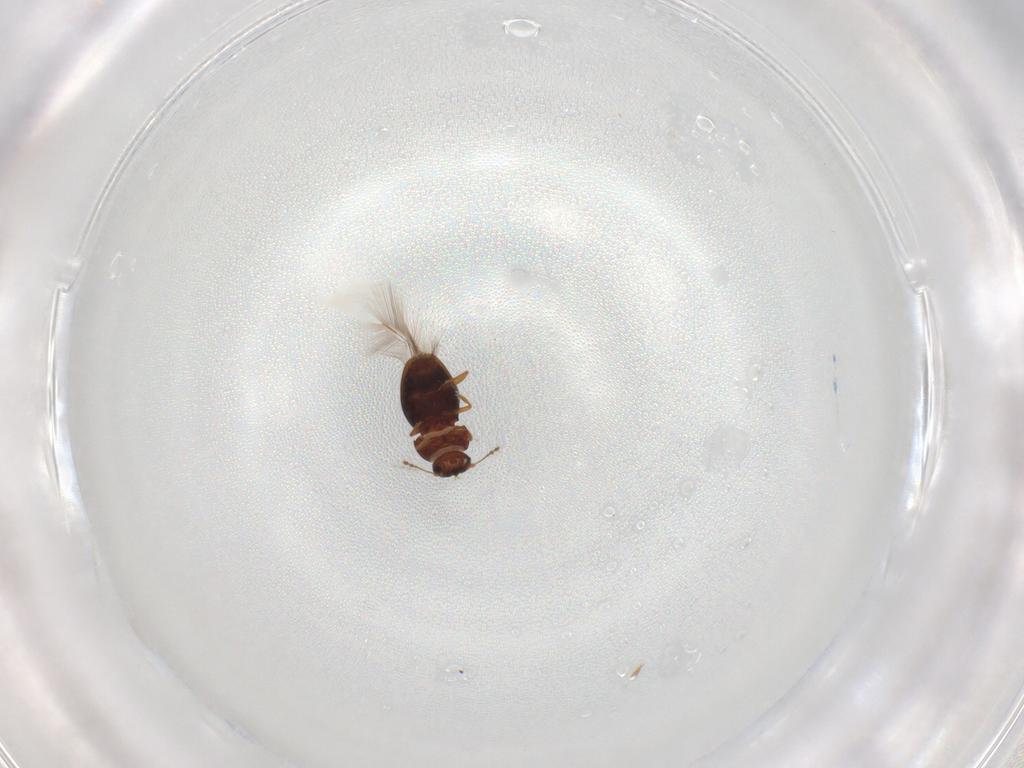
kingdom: Animalia
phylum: Arthropoda
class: Insecta
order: Coleoptera
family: Ptiliidae
